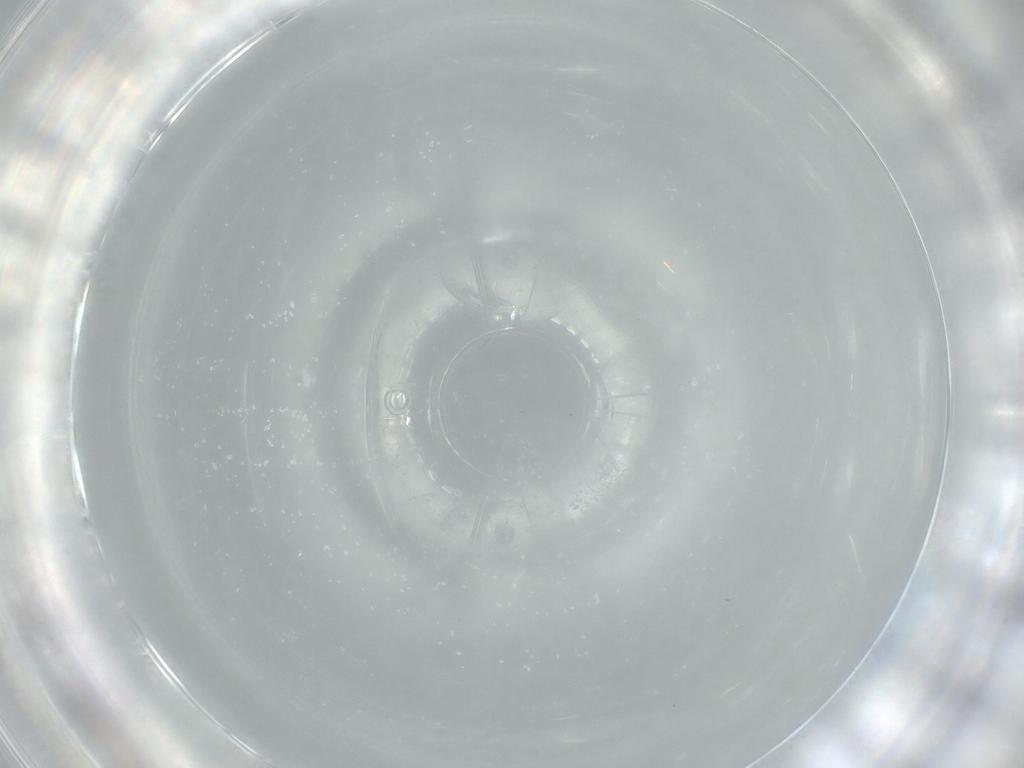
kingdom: Animalia
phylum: Arthropoda
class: Insecta
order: Diptera
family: Cecidomyiidae
